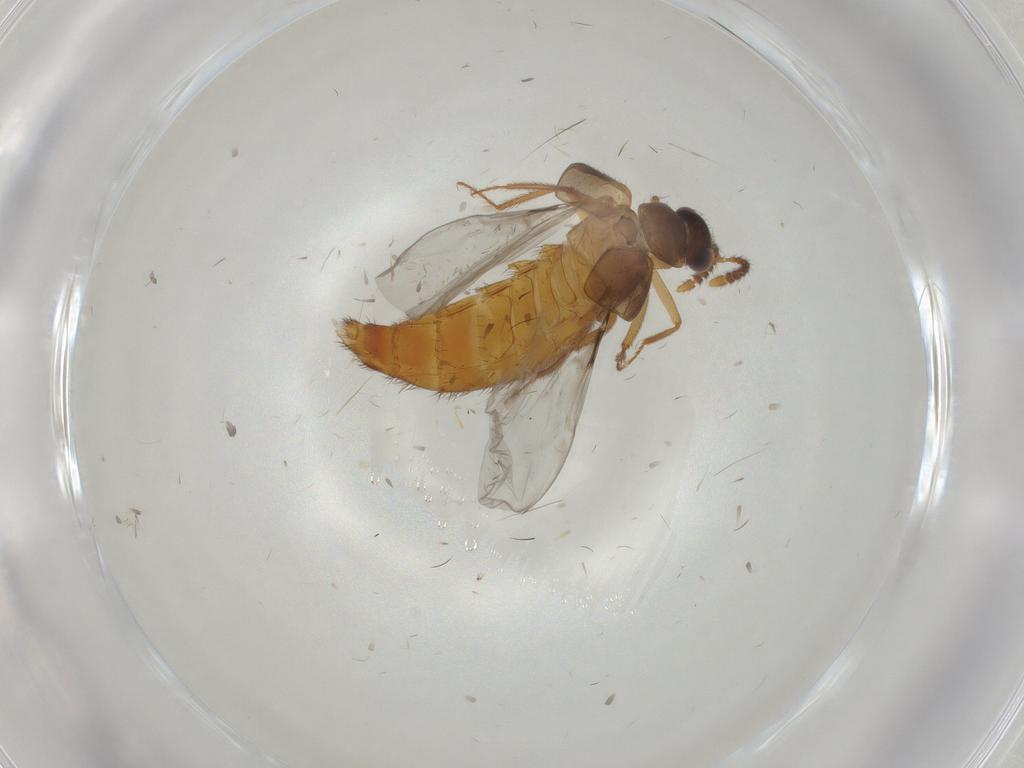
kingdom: Animalia
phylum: Arthropoda
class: Insecta
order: Coleoptera
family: Staphylinidae
